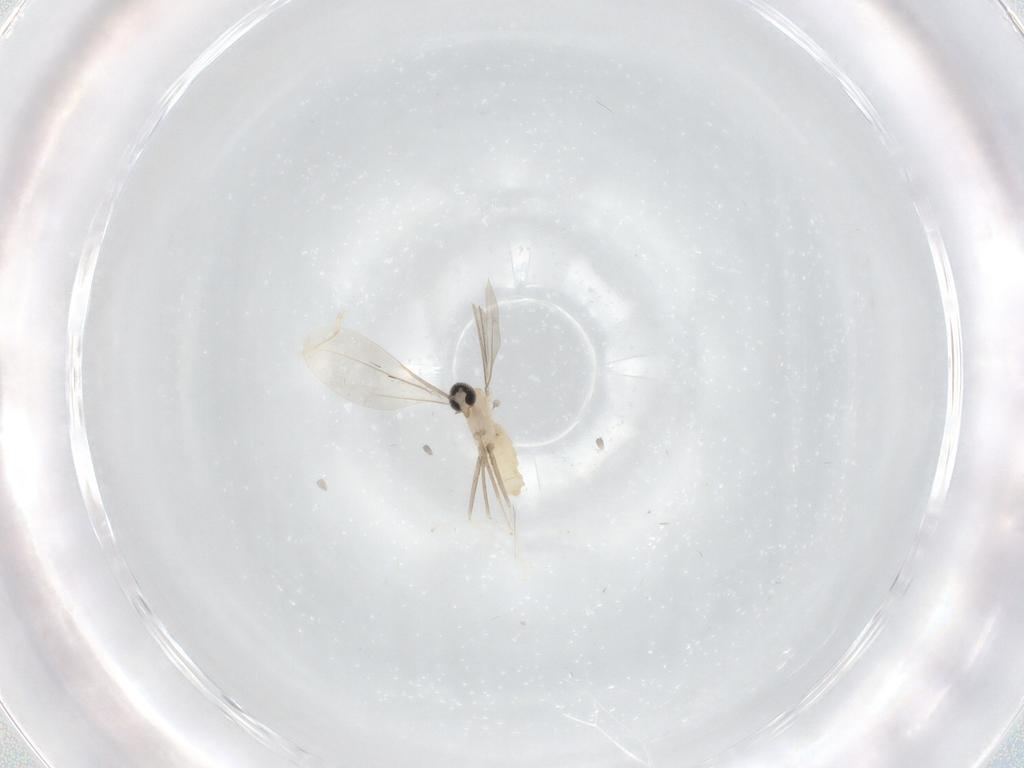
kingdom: Animalia
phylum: Arthropoda
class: Insecta
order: Diptera
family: Cecidomyiidae
